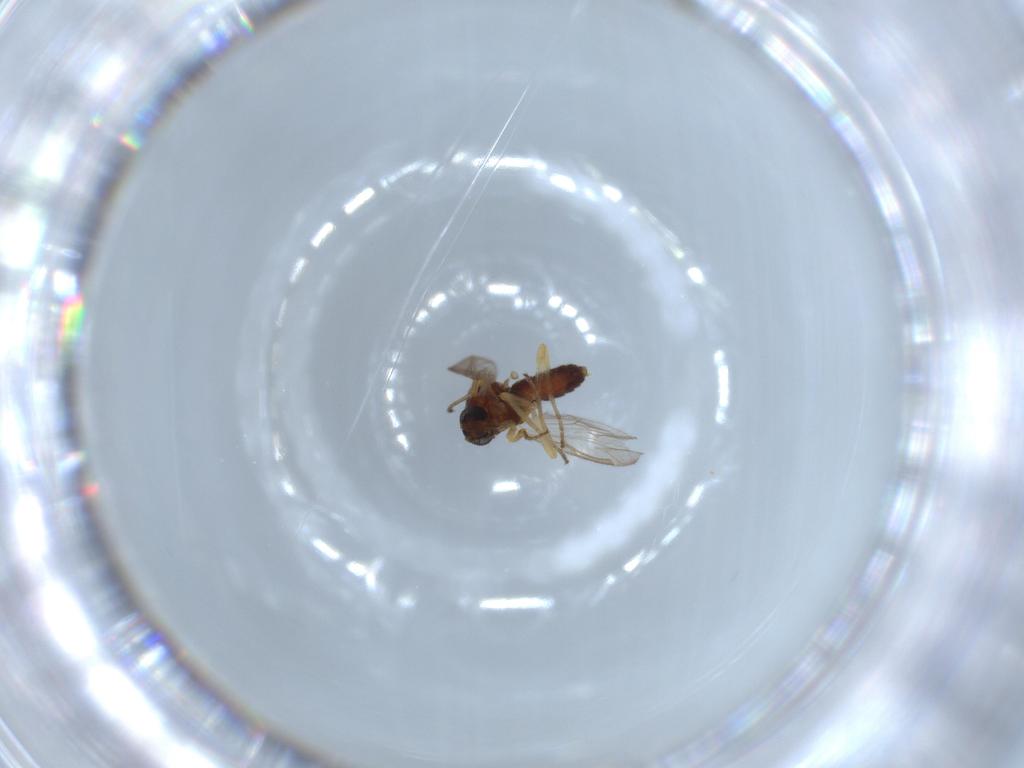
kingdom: Animalia
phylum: Arthropoda
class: Insecta
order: Diptera
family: Ceratopogonidae
